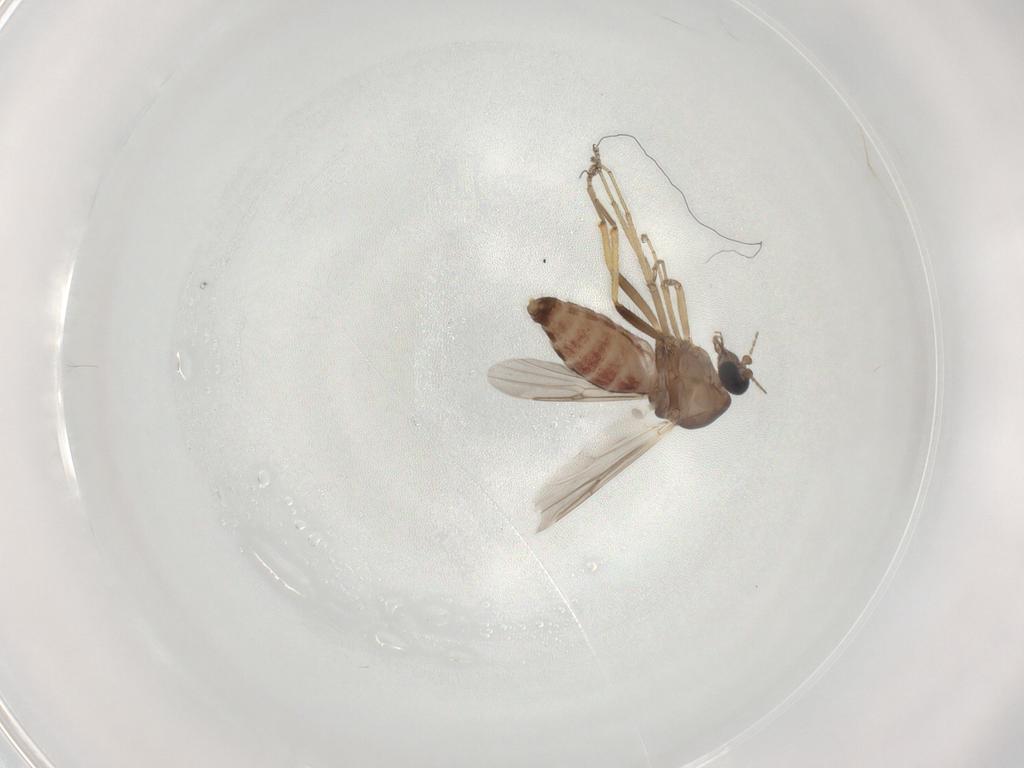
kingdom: Animalia
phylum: Arthropoda
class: Insecta
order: Diptera
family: Ceratopogonidae
